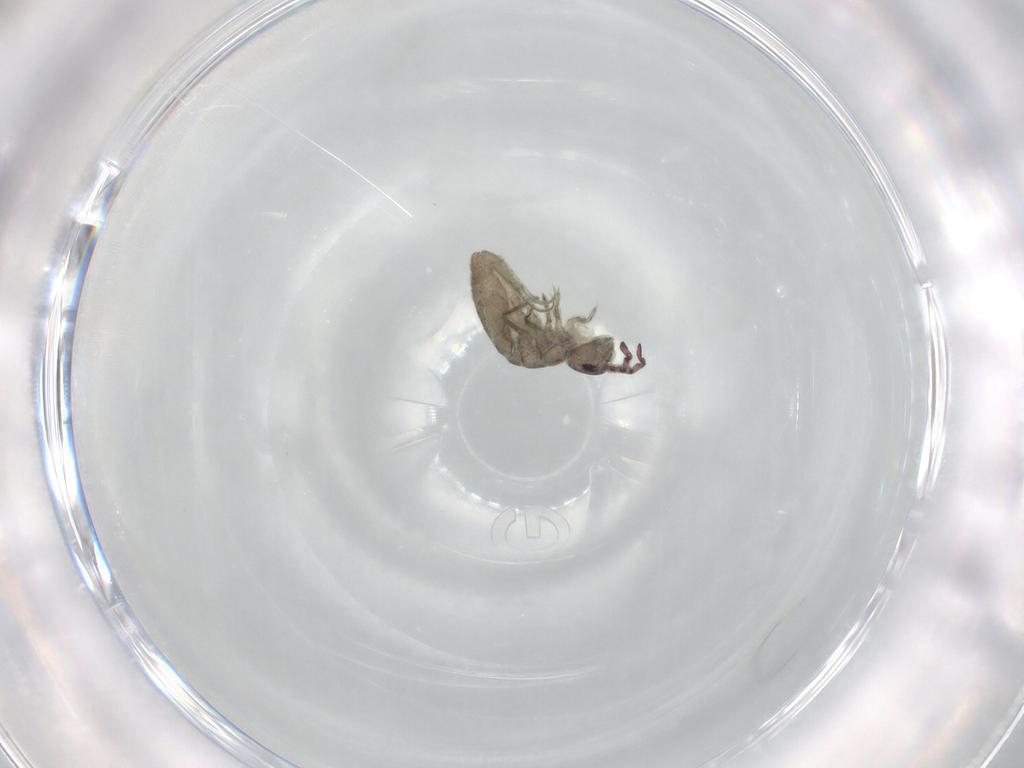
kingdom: Animalia
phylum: Arthropoda
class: Collembola
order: Entomobryomorpha
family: Isotomidae
